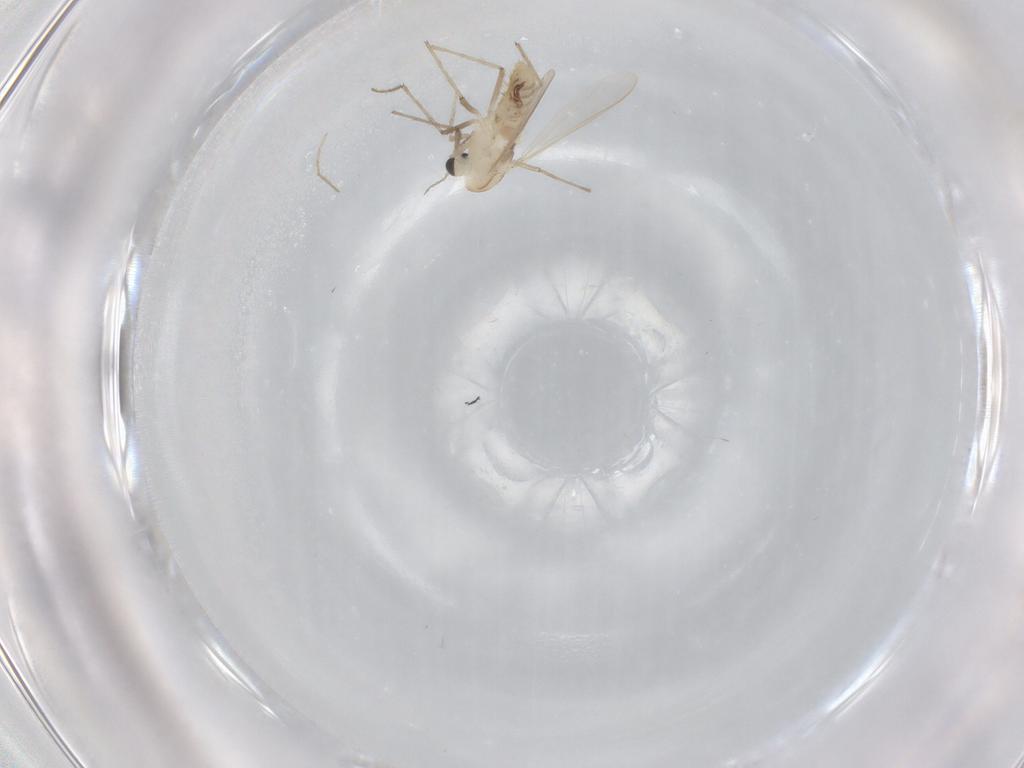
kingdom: Animalia
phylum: Arthropoda
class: Insecta
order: Diptera
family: Chironomidae
